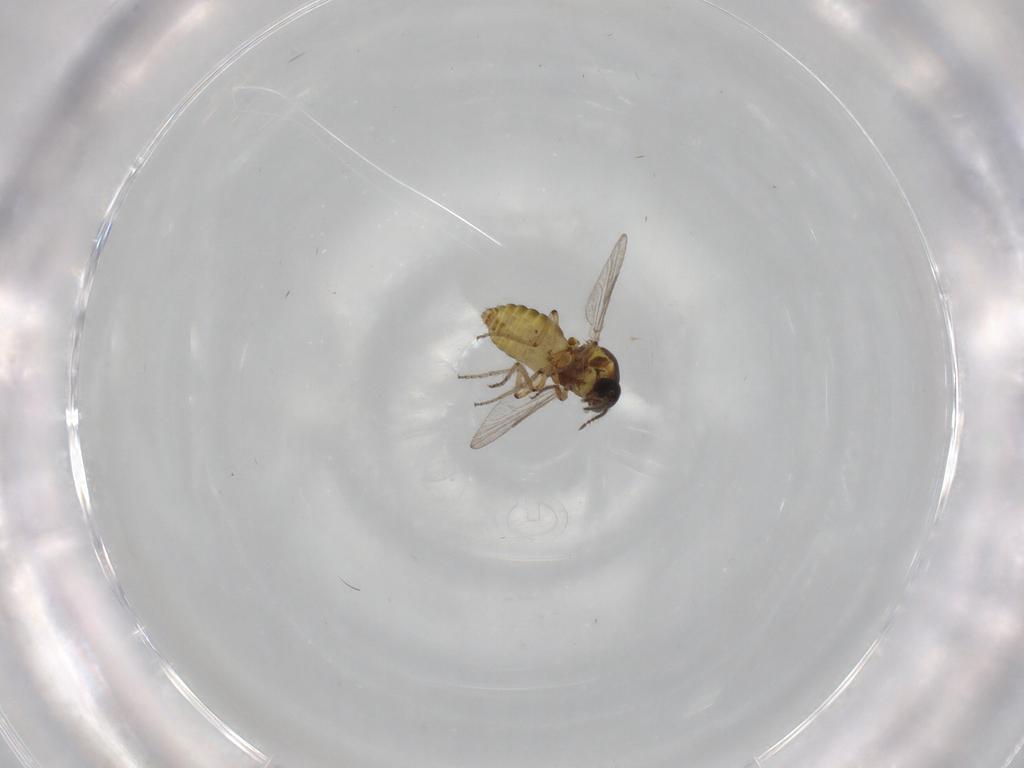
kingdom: Animalia
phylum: Arthropoda
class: Insecta
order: Diptera
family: Ceratopogonidae
